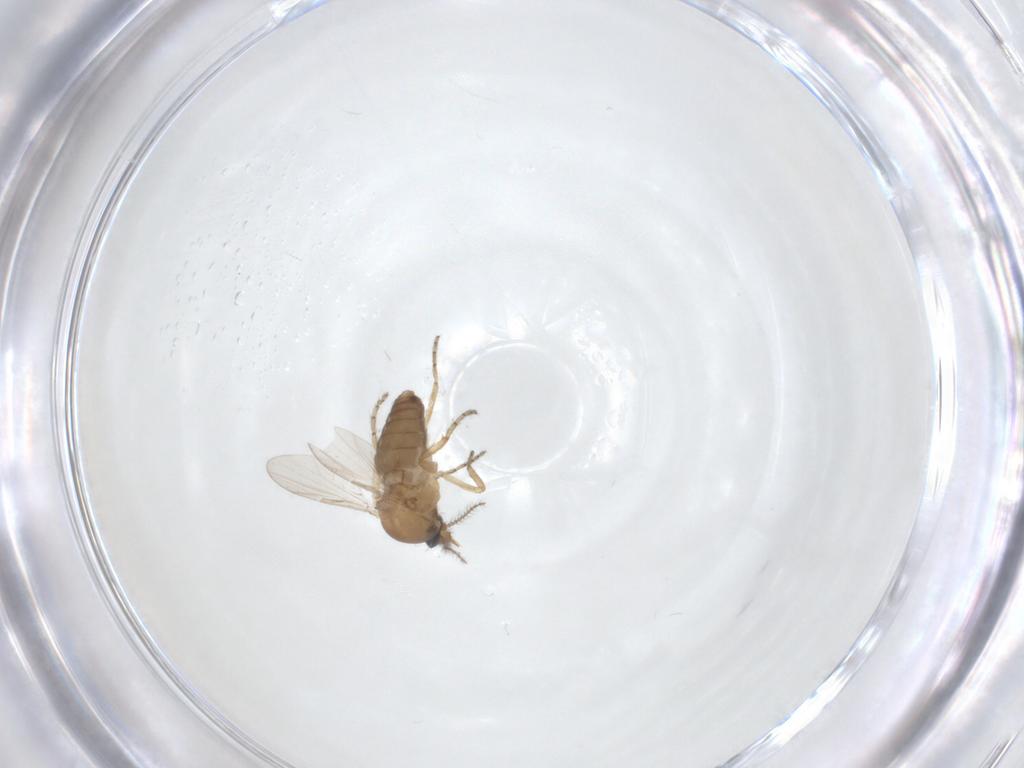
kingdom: Animalia
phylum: Arthropoda
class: Insecta
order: Diptera
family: Ceratopogonidae
